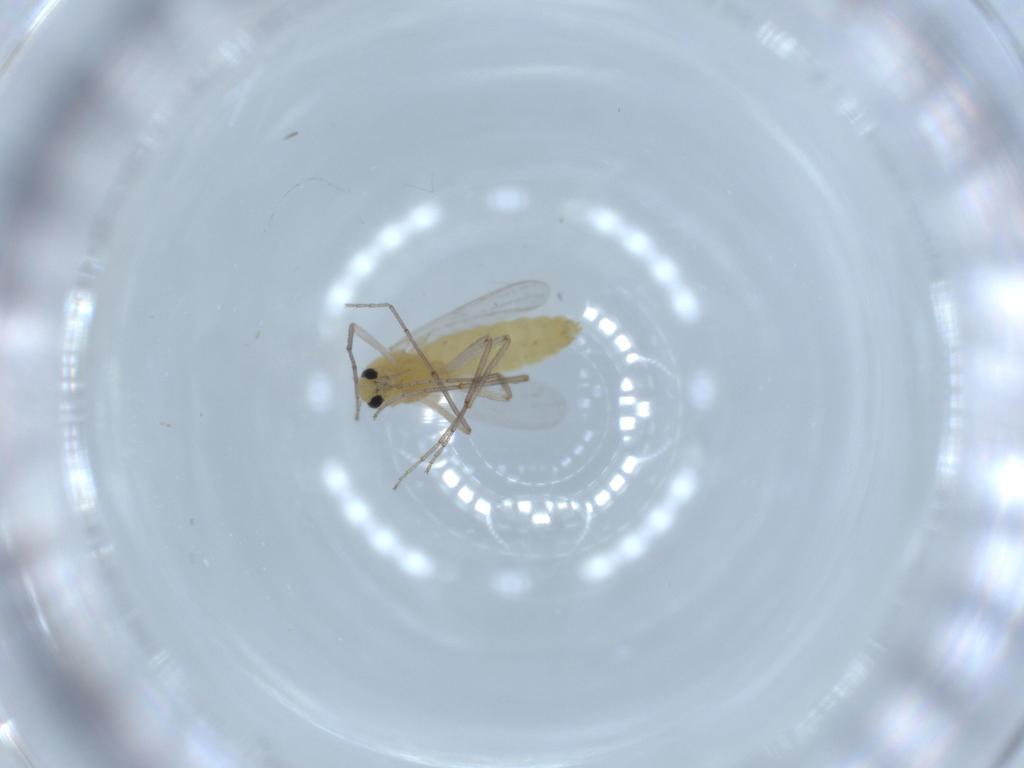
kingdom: Animalia
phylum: Arthropoda
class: Insecta
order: Diptera
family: Chironomidae
